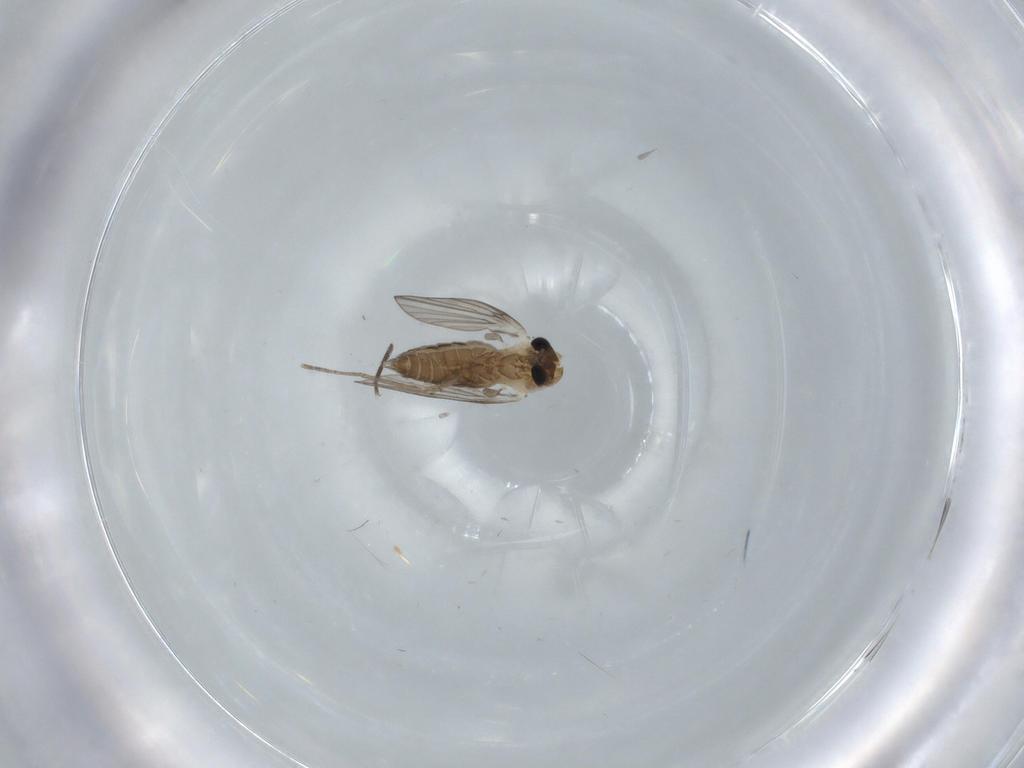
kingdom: Animalia
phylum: Arthropoda
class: Insecta
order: Diptera
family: Psychodidae
